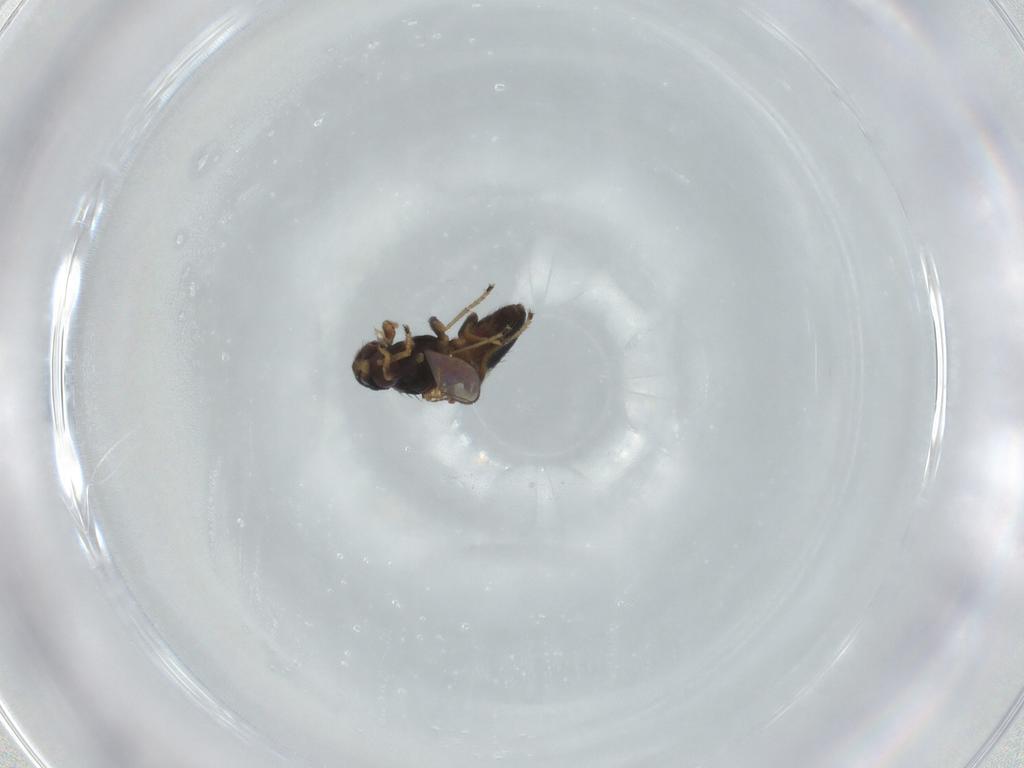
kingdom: Animalia
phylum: Arthropoda
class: Insecta
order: Diptera
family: Ephydridae
